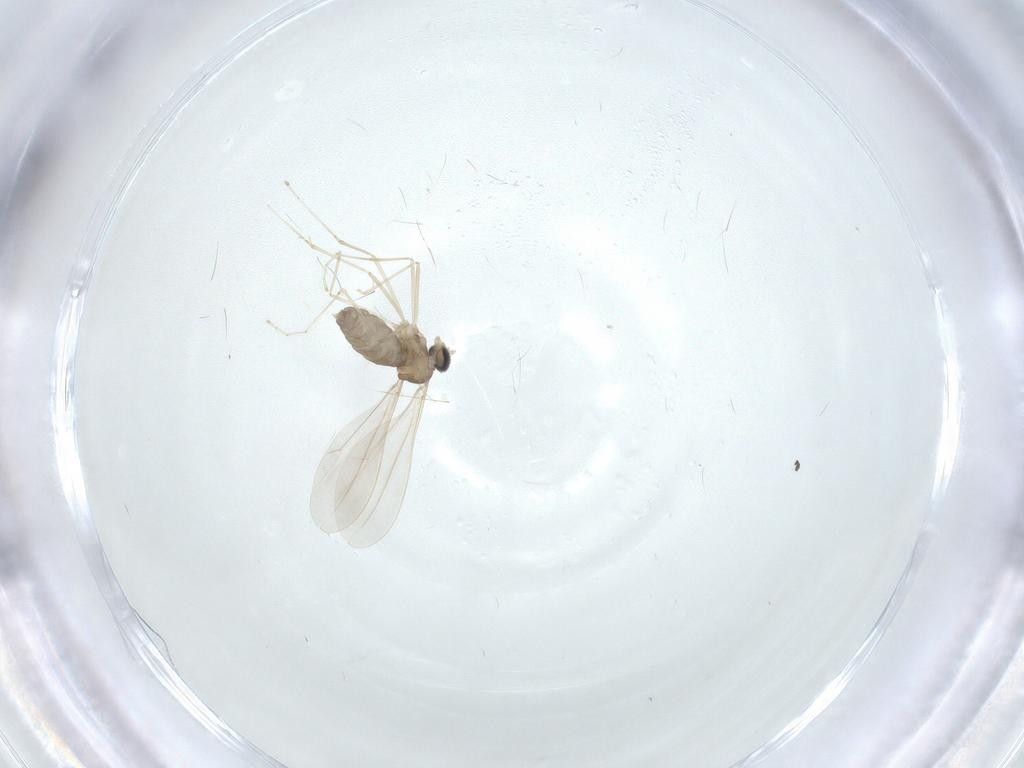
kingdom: Animalia
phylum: Arthropoda
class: Insecta
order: Diptera
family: Cecidomyiidae
